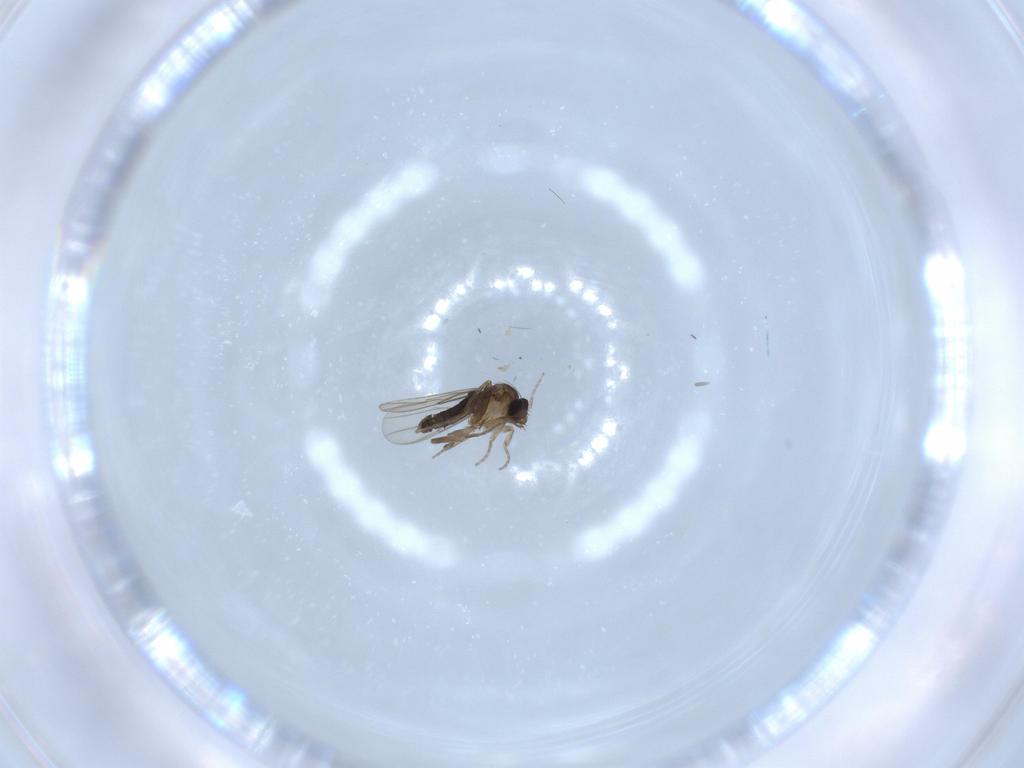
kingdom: Animalia
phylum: Arthropoda
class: Insecta
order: Diptera
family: Phoridae
